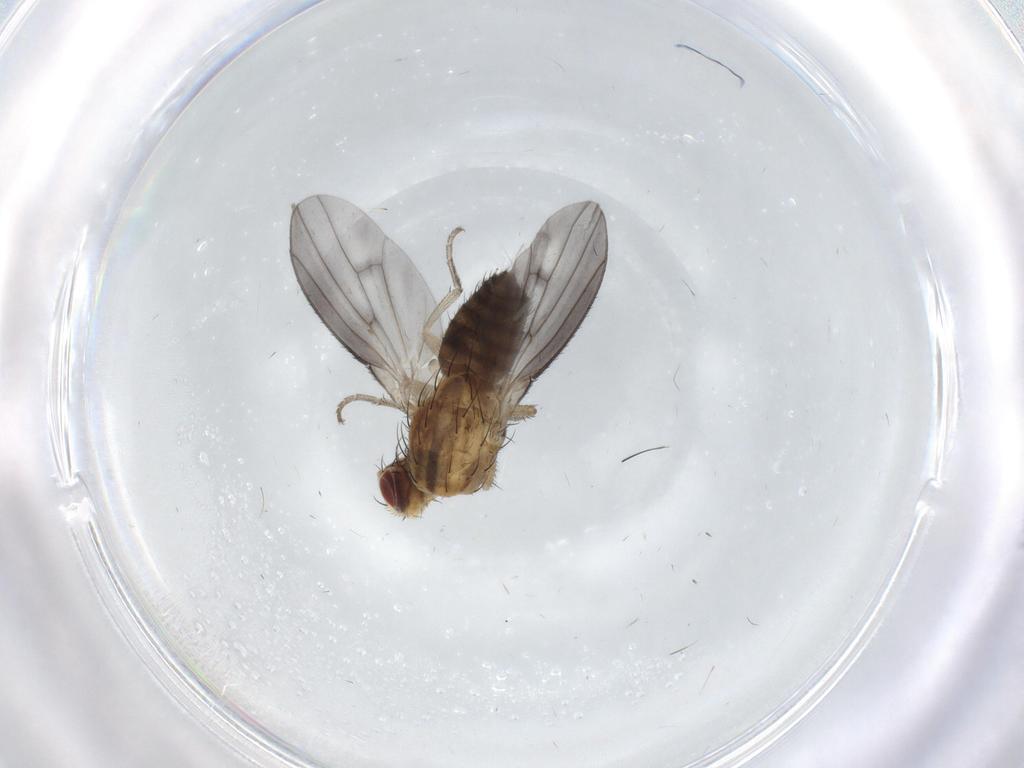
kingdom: Animalia
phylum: Arthropoda
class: Insecta
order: Diptera
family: Heleomyzidae
